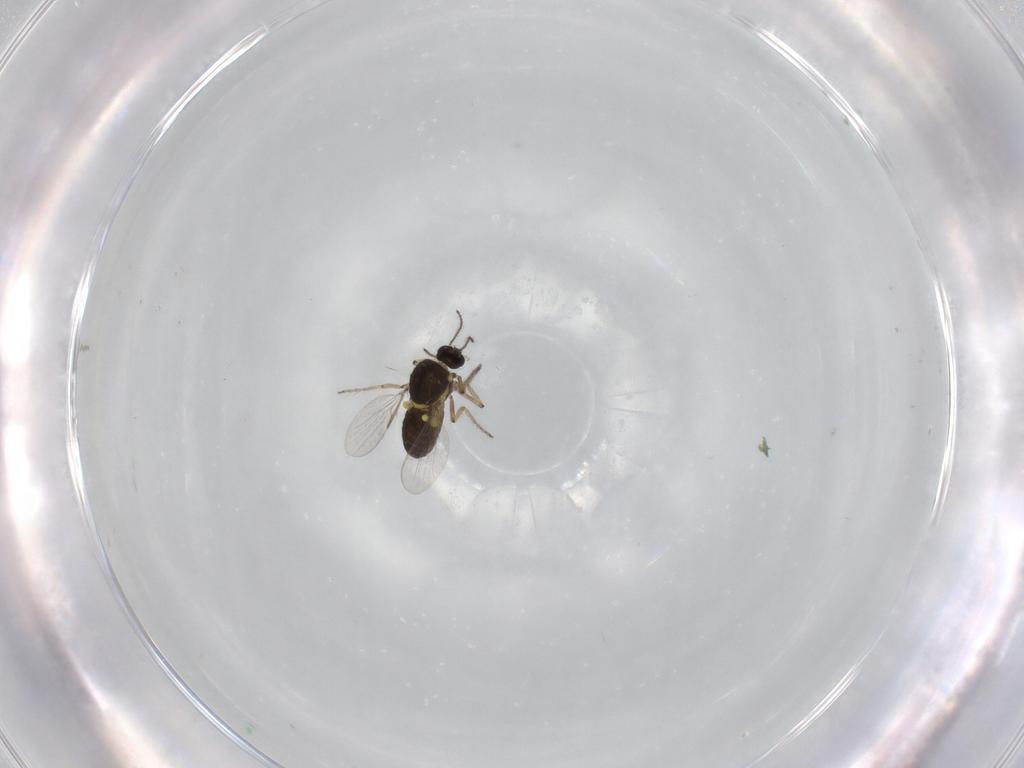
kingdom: Animalia
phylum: Arthropoda
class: Insecta
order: Diptera
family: Ceratopogonidae
